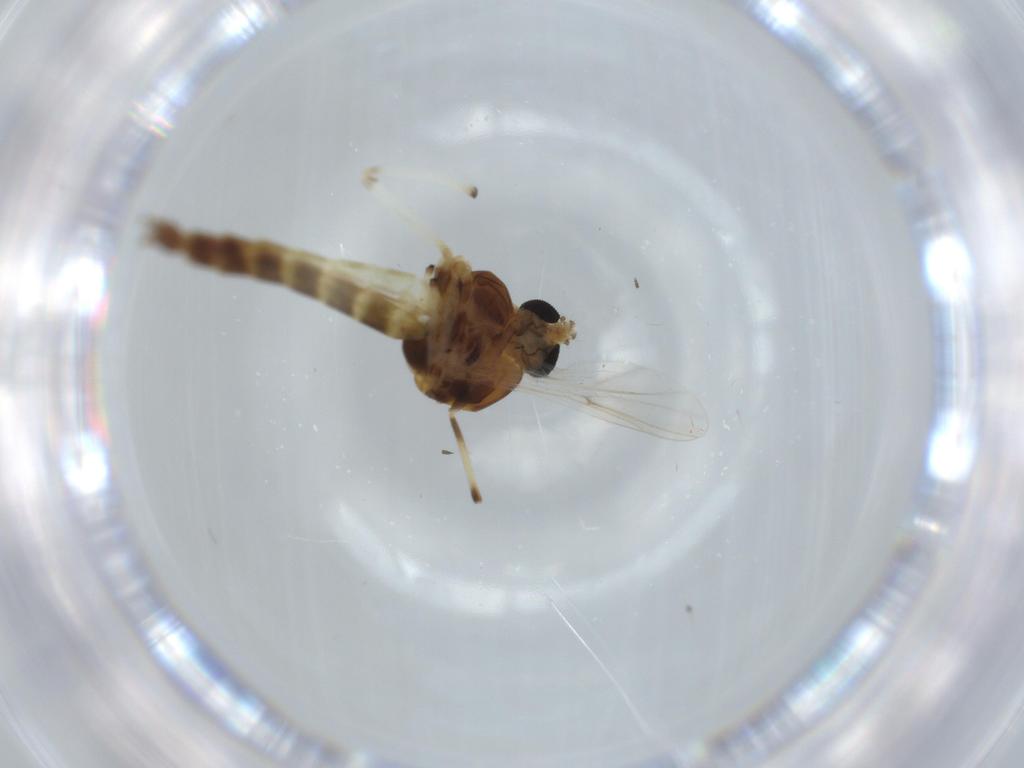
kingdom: Animalia
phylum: Arthropoda
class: Insecta
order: Diptera
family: Chironomidae
